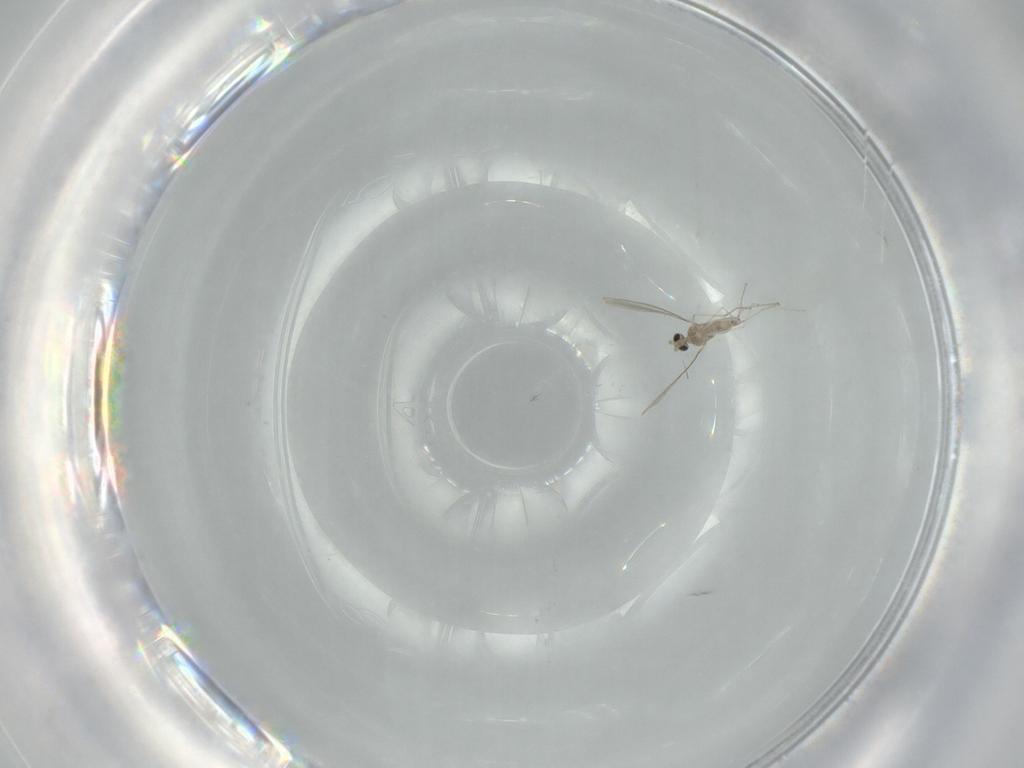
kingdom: Animalia
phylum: Arthropoda
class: Insecta
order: Diptera
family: Cecidomyiidae
